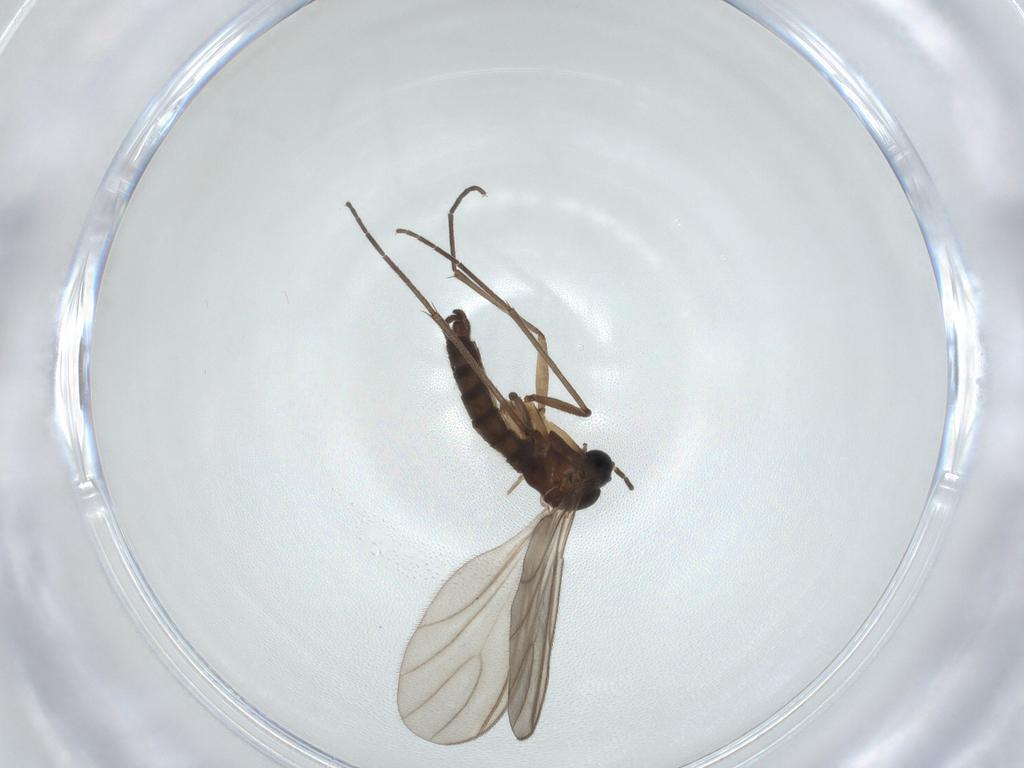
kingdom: Animalia
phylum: Arthropoda
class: Insecta
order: Diptera
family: Sciaridae
